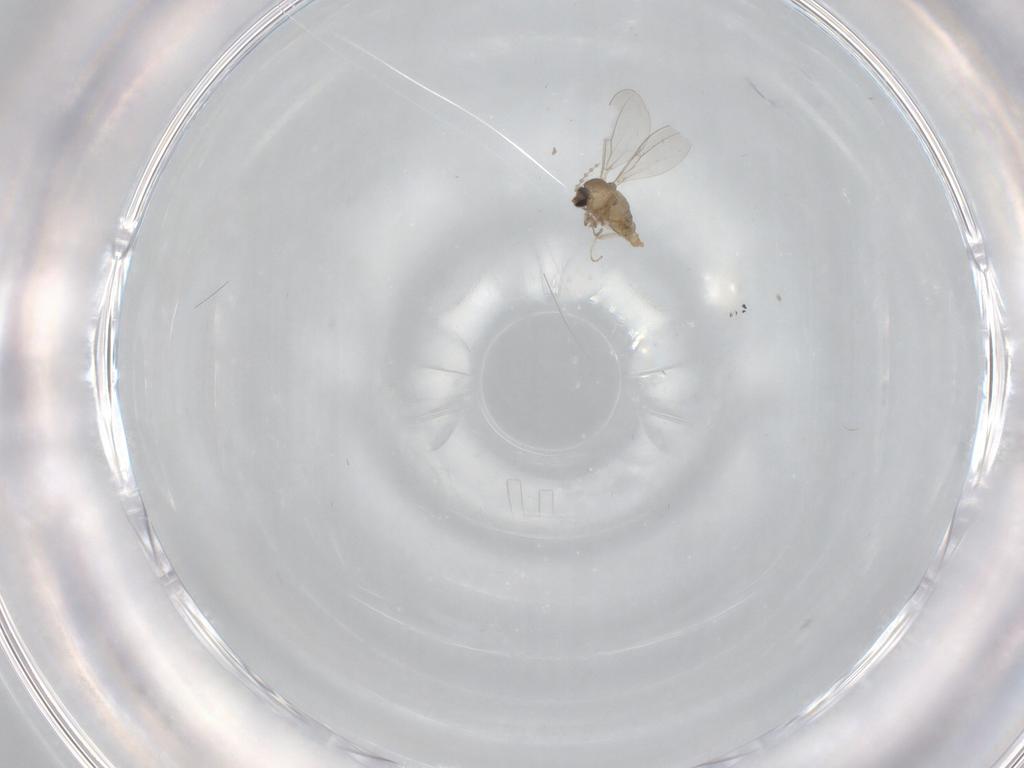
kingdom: Animalia
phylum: Arthropoda
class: Insecta
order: Diptera
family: Cecidomyiidae
